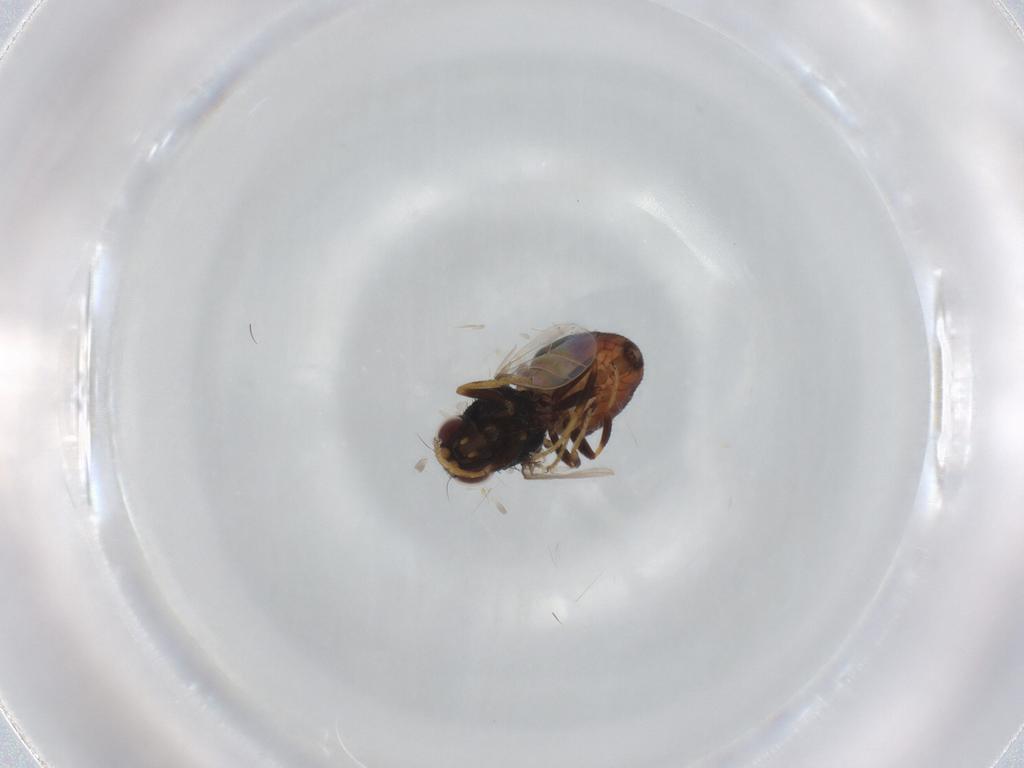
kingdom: Animalia
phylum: Arthropoda
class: Insecta
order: Diptera
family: Chloropidae
